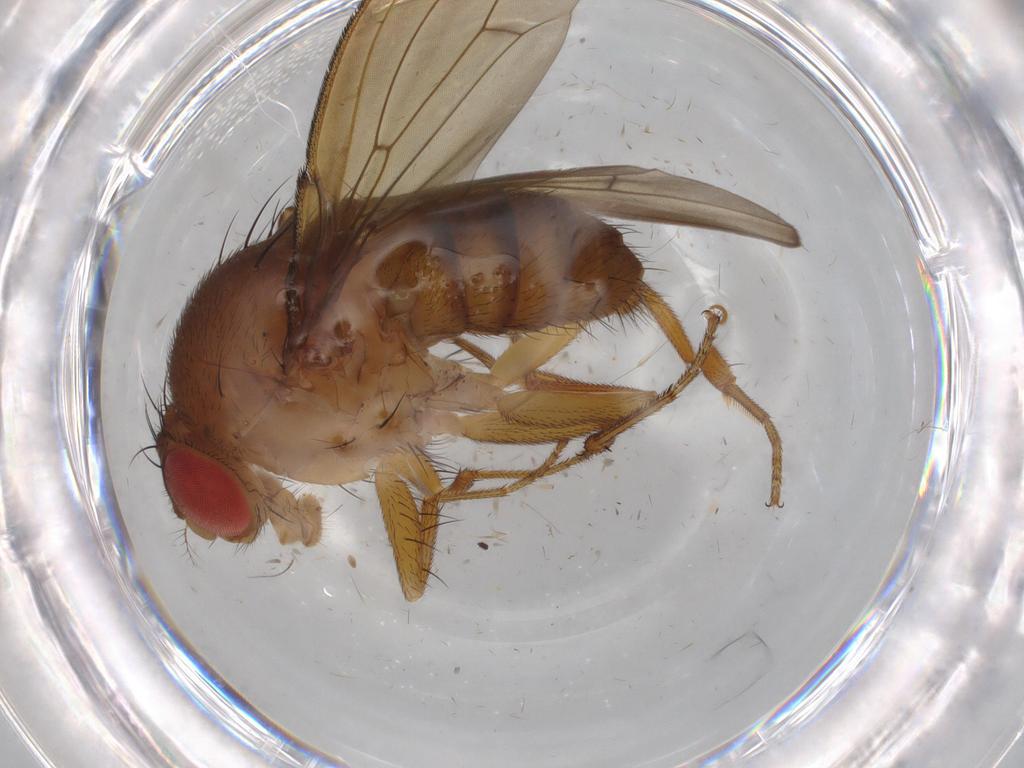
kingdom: Animalia
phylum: Arthropoda
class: Insecta
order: Diptera
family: Drosophilidae
